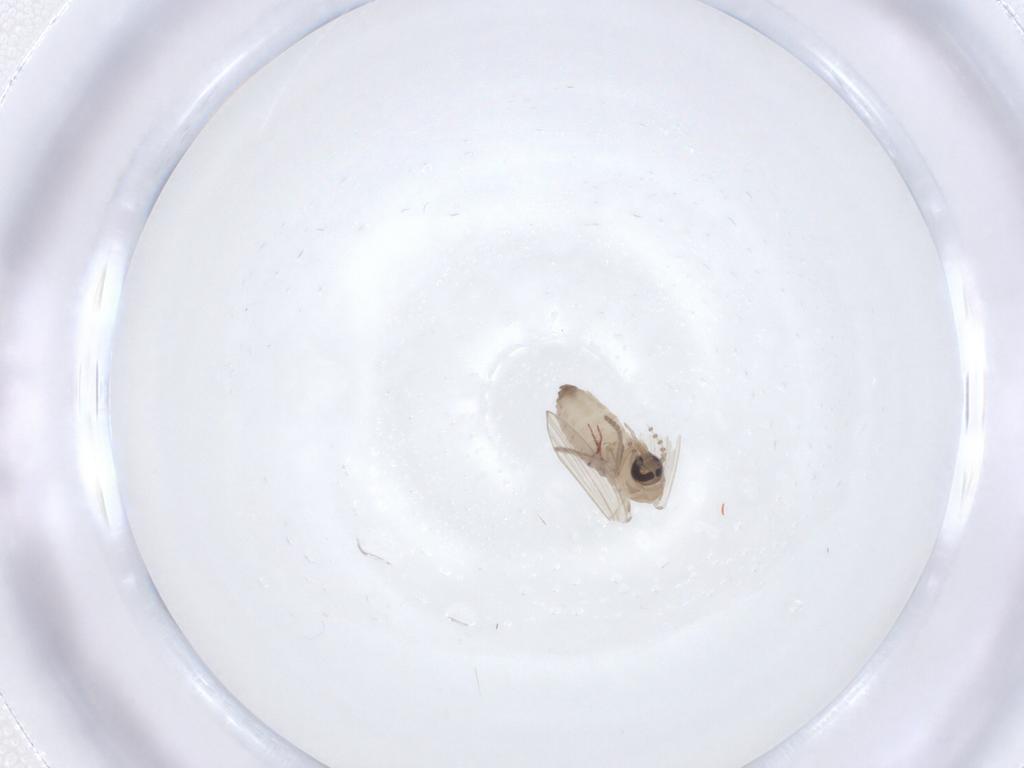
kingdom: Animalia
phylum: Arthropoda
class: Insecta
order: Diptera
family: Psychodidae
